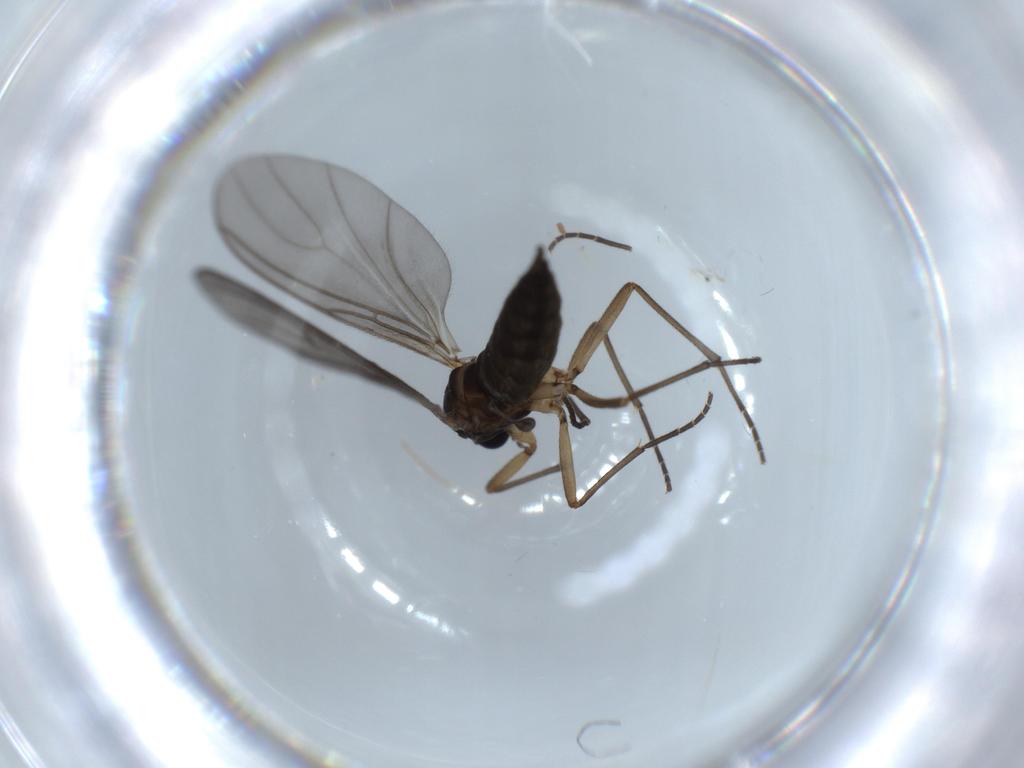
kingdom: Animalia
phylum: Arthropoda
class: Insecta
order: Diptera
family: Sciaridae
